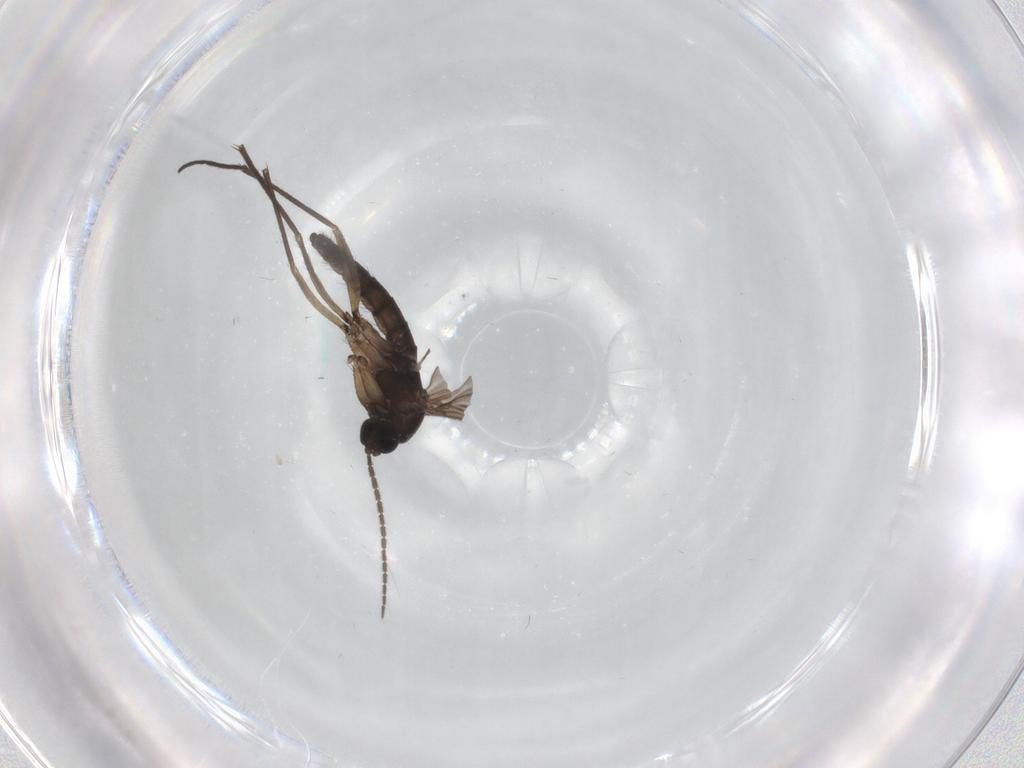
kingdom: Animalia
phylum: Arthropoda
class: Insecta
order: Diptera
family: Sciaridae
